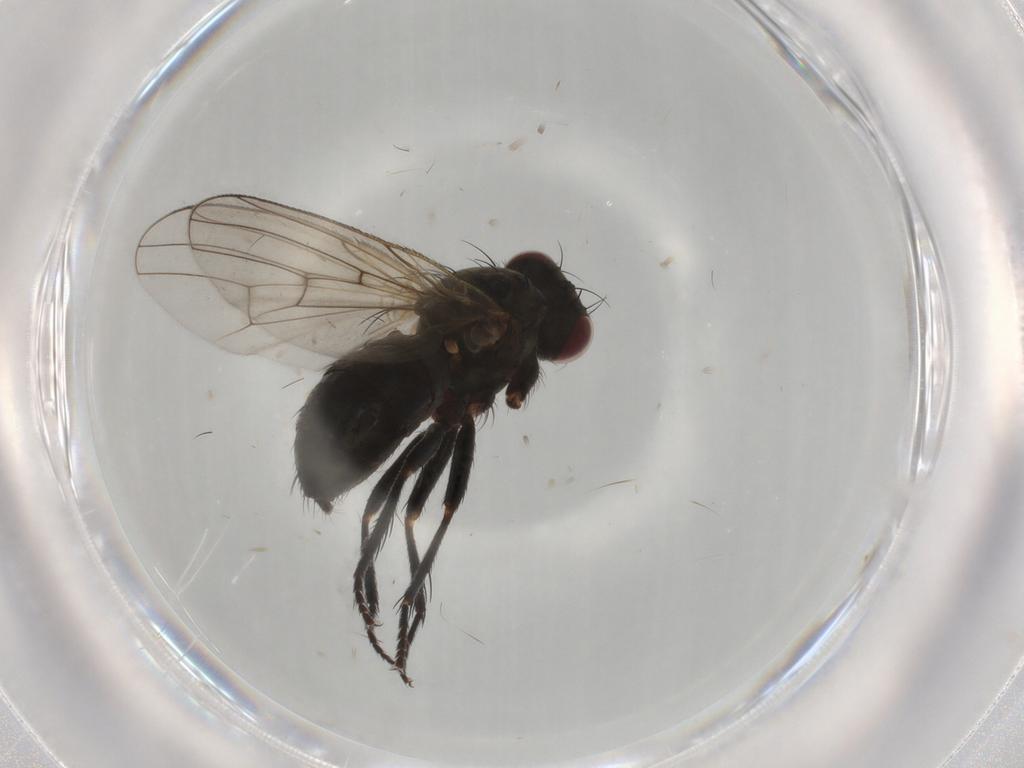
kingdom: Animalia
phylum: Arthropoda
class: Insecta
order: Diptera
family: Muscidae
